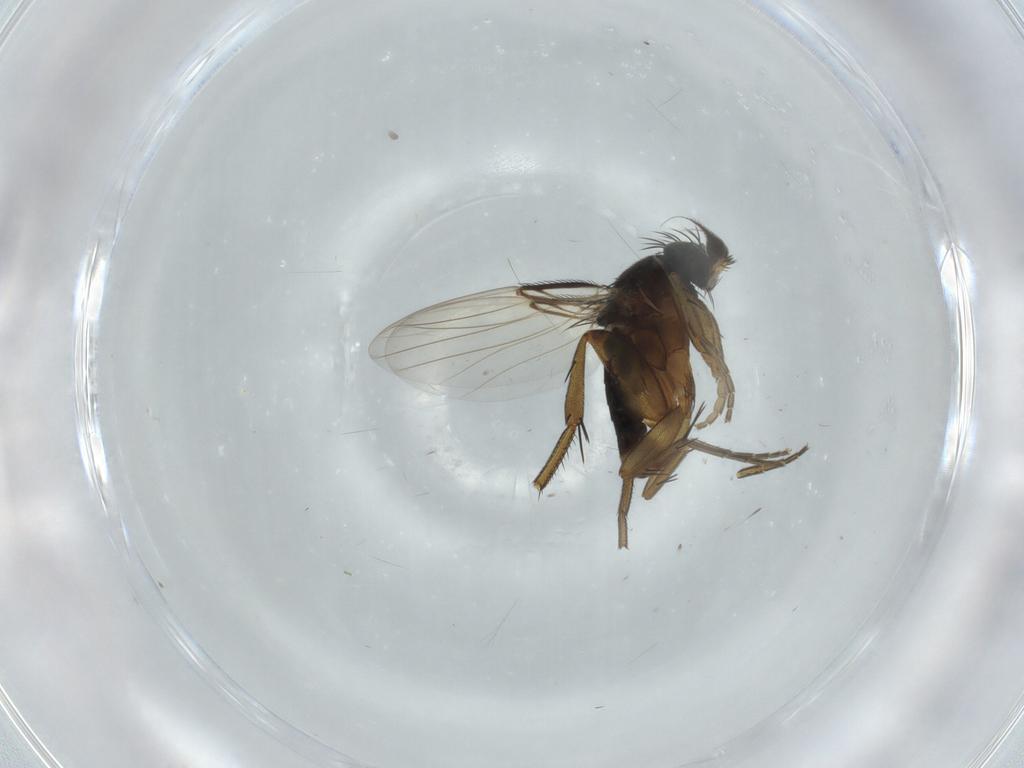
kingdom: Animalia
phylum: Arthropoda
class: Insecta
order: Diptera
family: Phoridae
